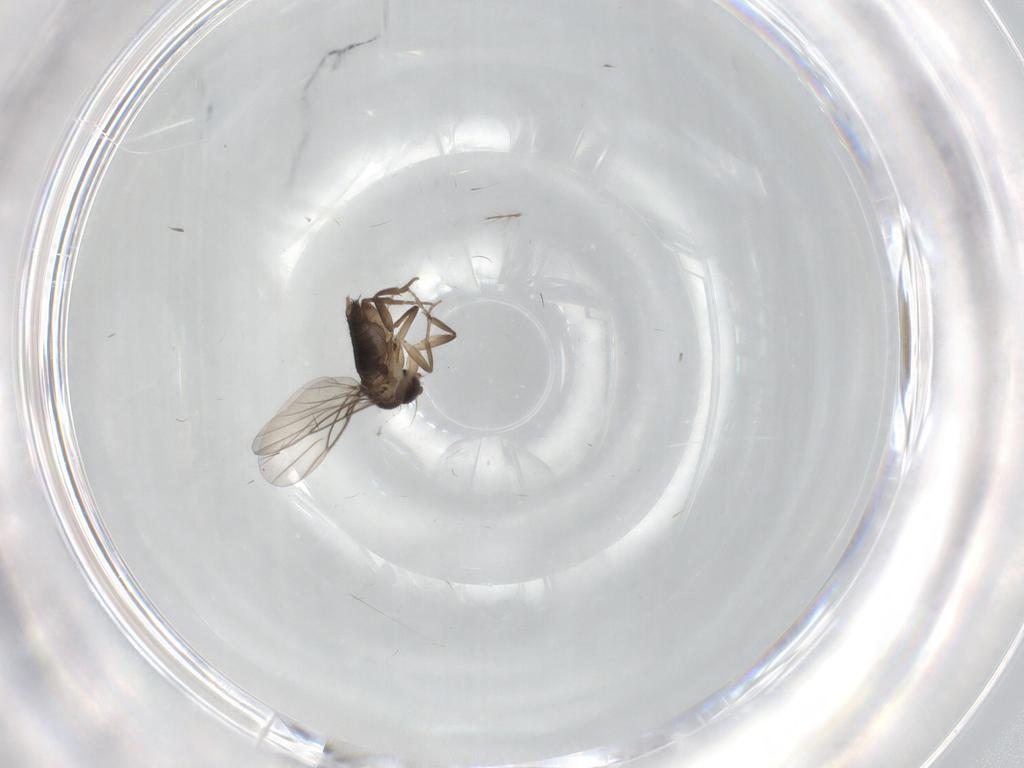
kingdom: Animalia
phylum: Arthropoda
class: Insecta
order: Diptera
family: Phoridae
